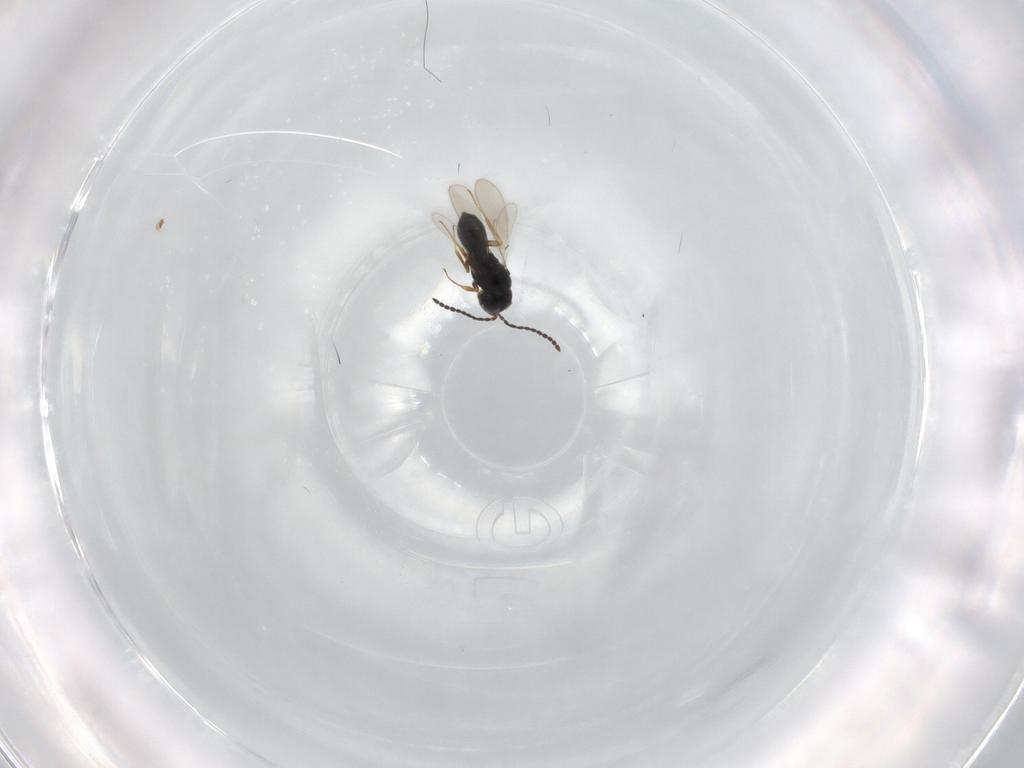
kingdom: Animalia
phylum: Arthropoda
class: Insecta
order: Hymenoptera
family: Scelionidae
